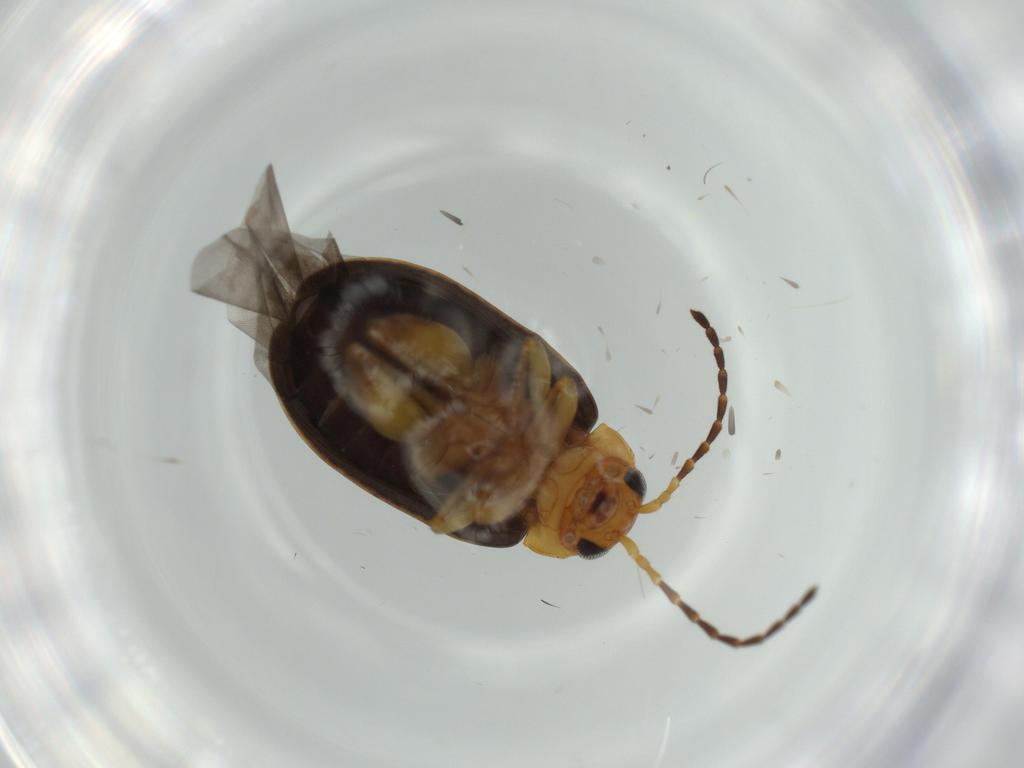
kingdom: Animalia
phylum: Arthropoda
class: Insecta
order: Coleoptera
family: Chrysomelidae
